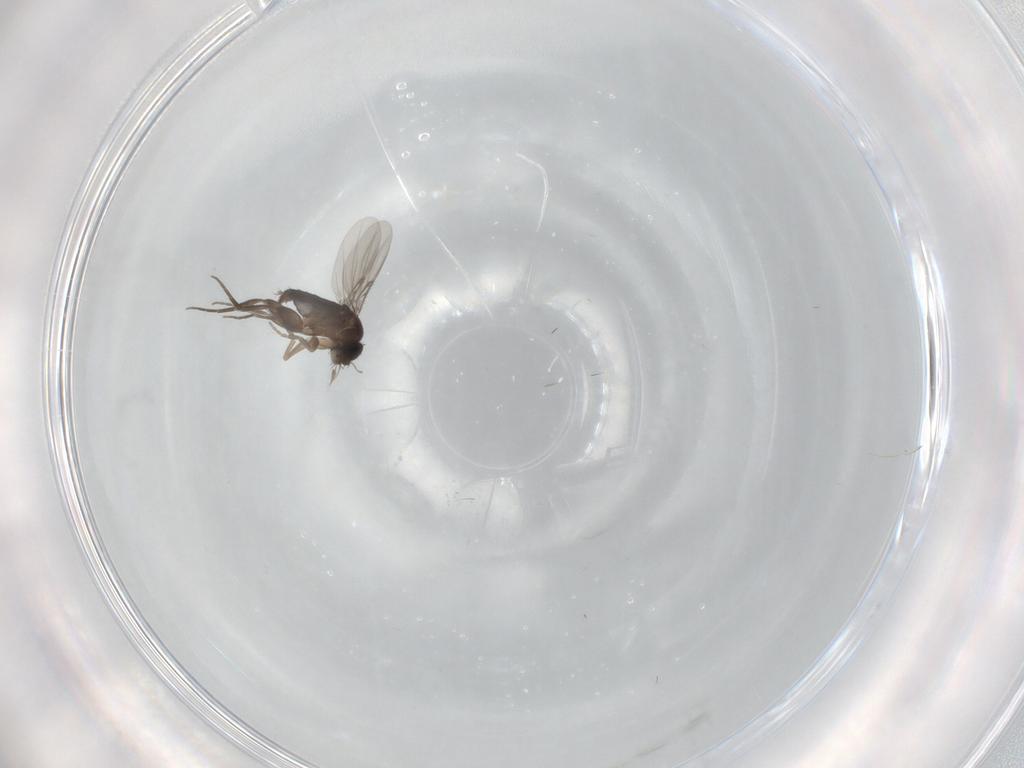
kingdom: Animalia
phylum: Arthropoda
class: Insecta
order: Diptera
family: Phoridae
